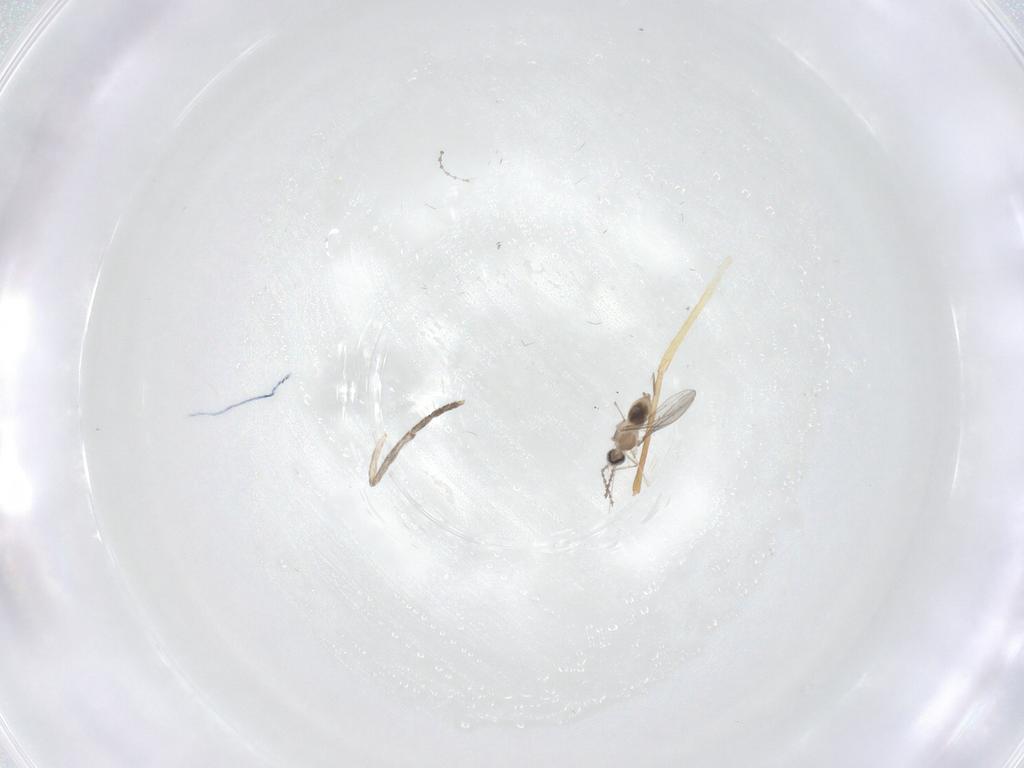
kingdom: Animalia
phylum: Arthropoda
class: Insecta
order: Diptera
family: Cecidomyiidae
